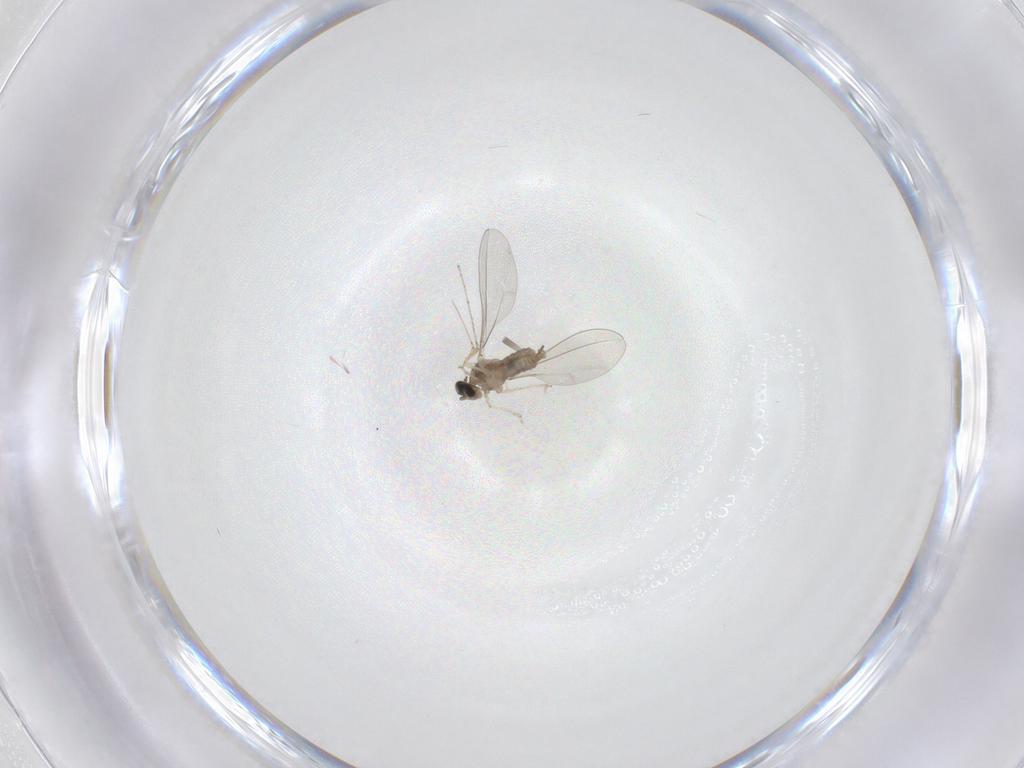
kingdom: Animalia
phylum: Arthropoda
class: Insecta
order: Diptera
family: Cecidomyiidae
